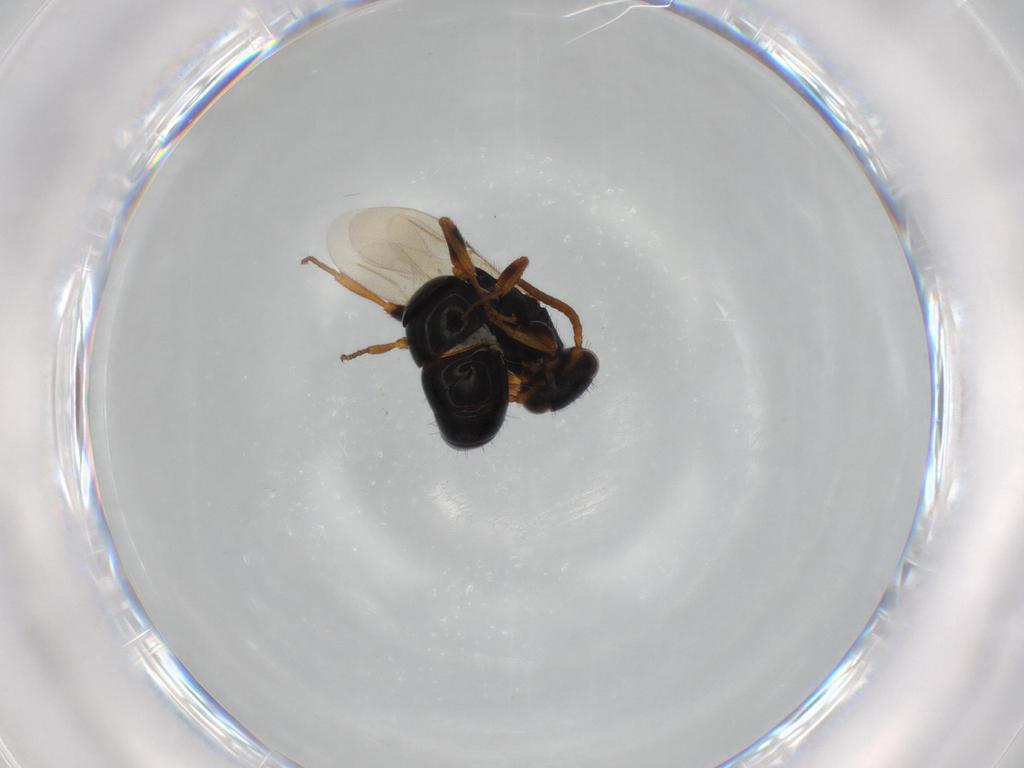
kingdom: Animalia
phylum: Arthropoda
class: Insecta
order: Hymenoptera
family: Bethylidae
